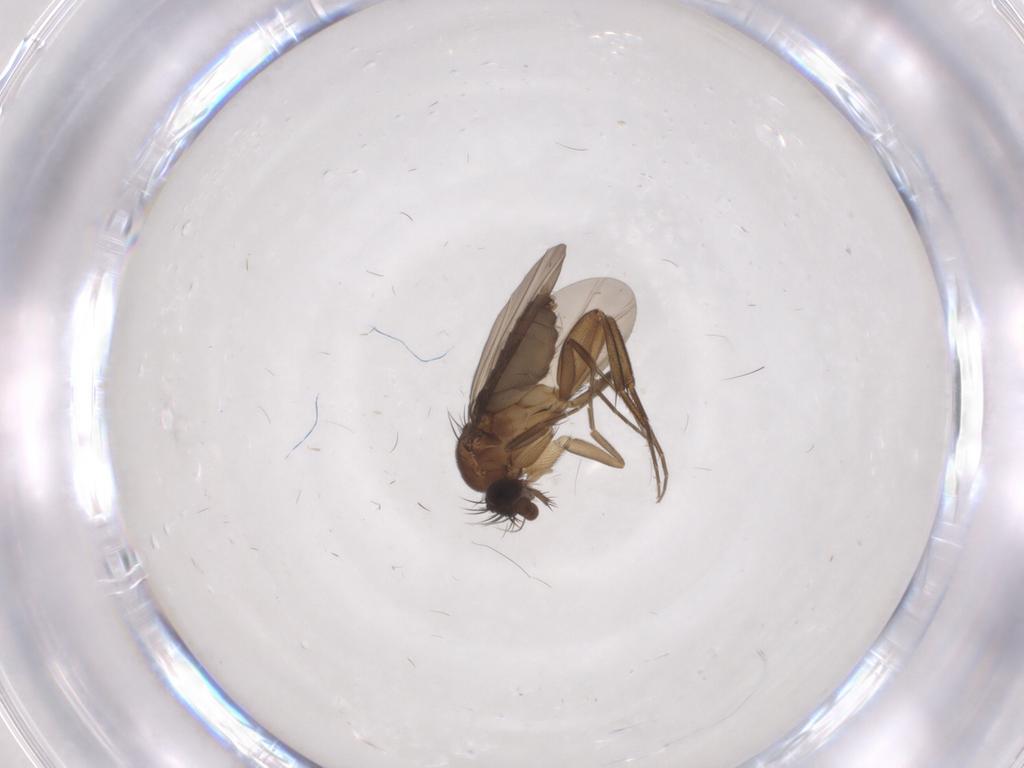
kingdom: Animalia
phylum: Arthropoda
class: Insecta
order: Diptera
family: Phoridae
